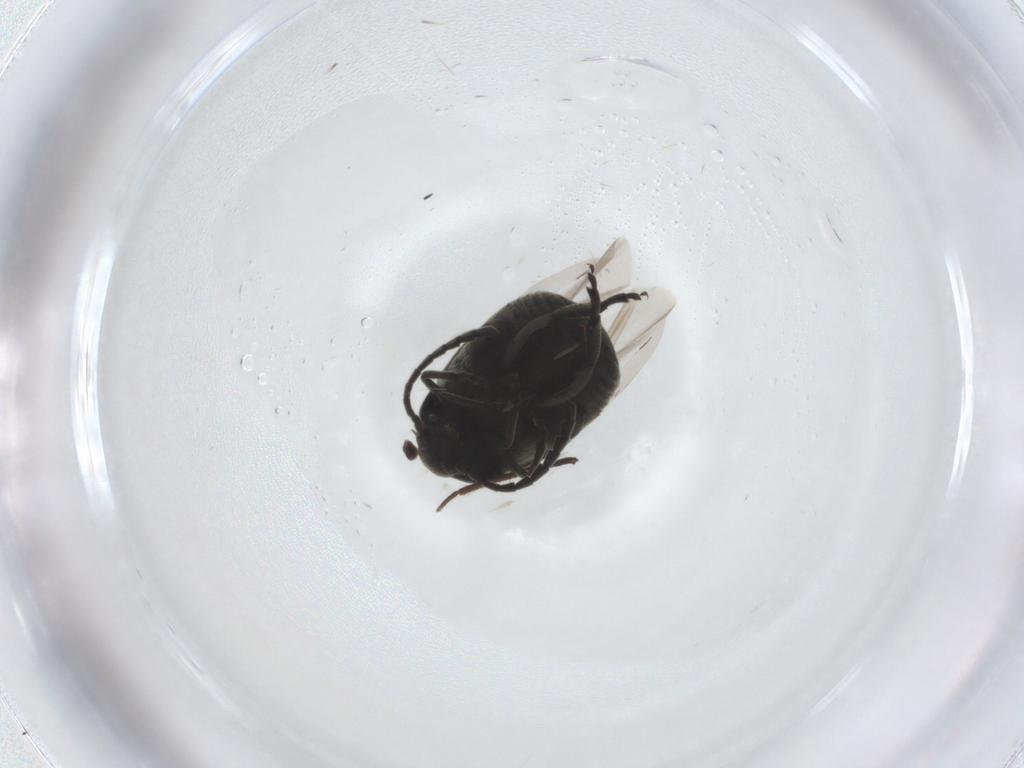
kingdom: Animalia
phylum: Arthropoda
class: Insecta
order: Coleoptera
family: Chrysomelidae
